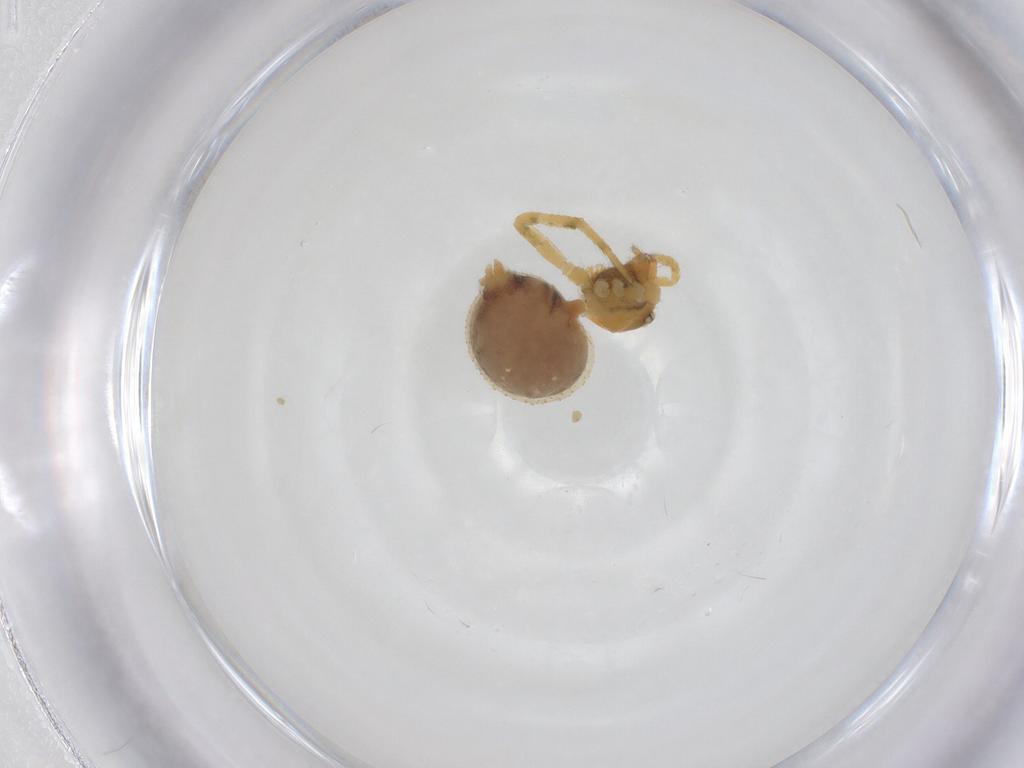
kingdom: Animalia
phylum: Arthropoda
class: Arachnida
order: Araneae
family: Theridiidae
